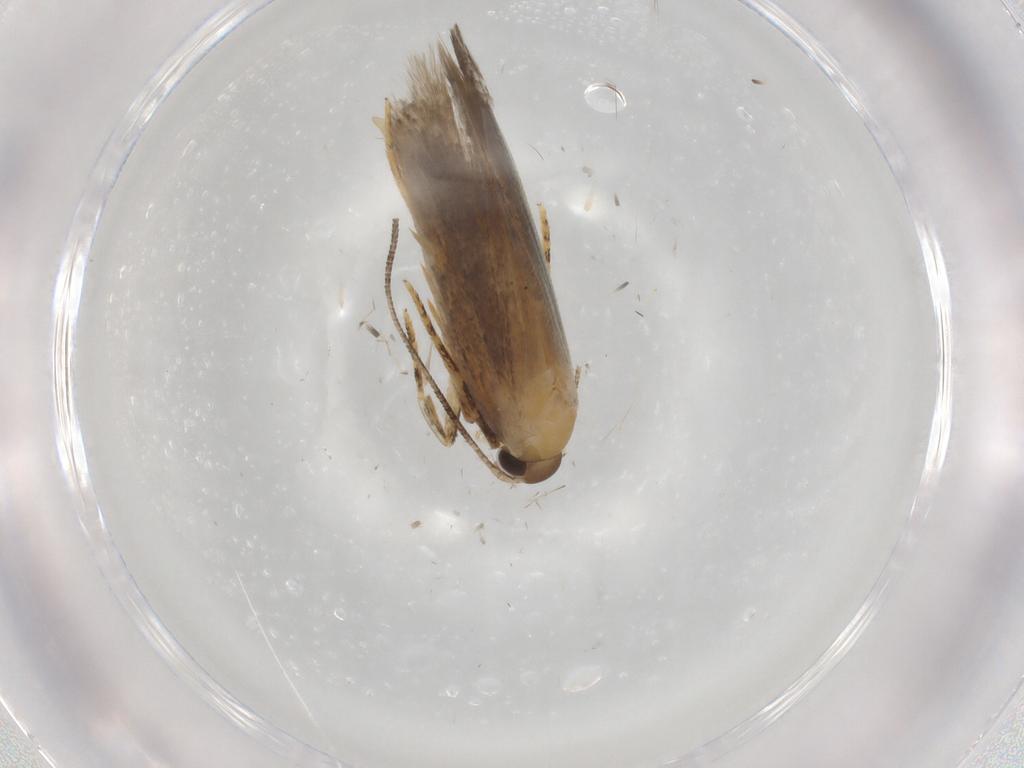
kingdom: Animalia
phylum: Arthropoda
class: Insecta
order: Lepidoptera
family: Autostichidae
